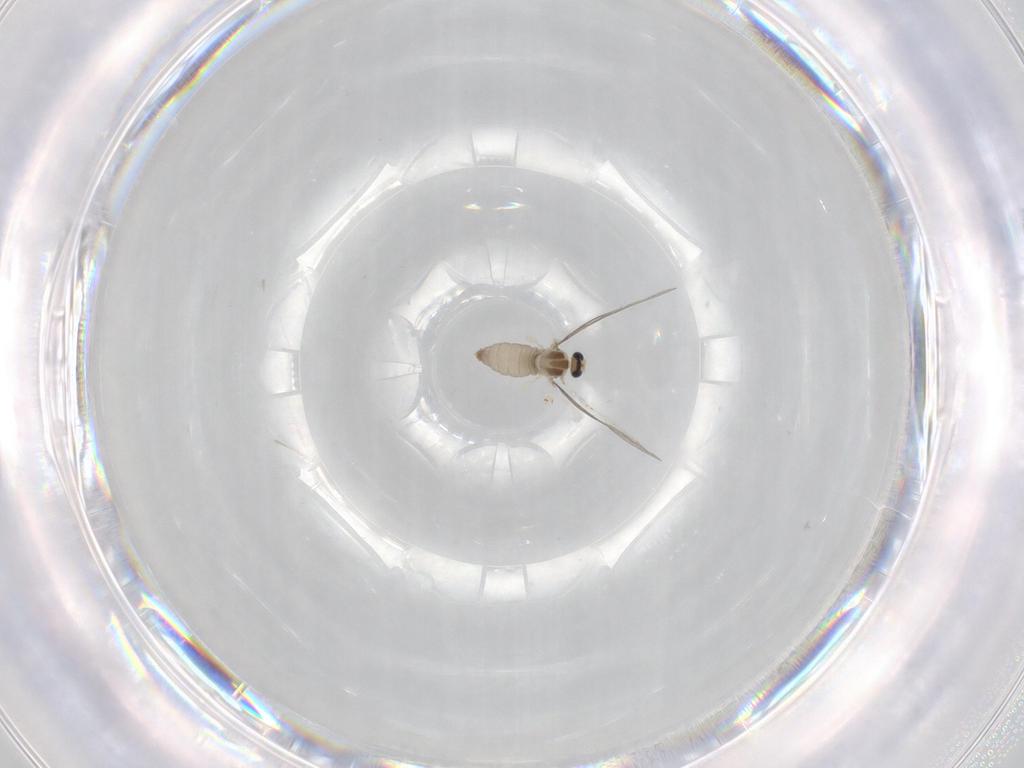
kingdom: Animalia
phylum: Arthropoda
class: Insecta
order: Diptera
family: Cecidomyiidae
